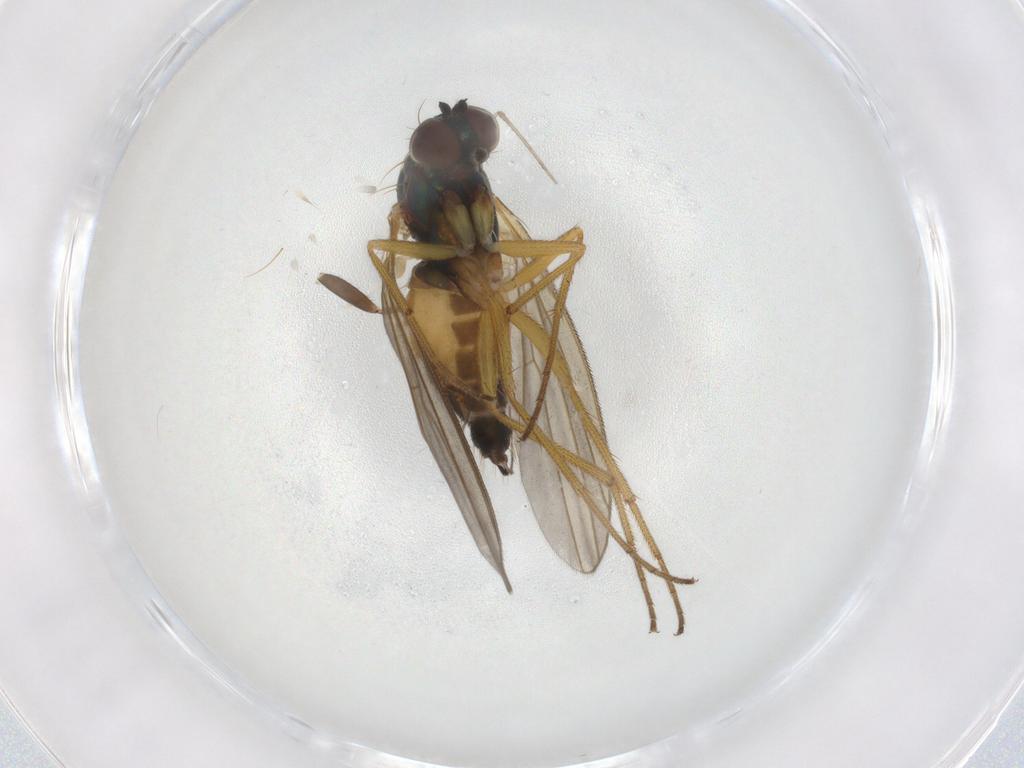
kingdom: Animalia
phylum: Arthropoda
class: Insecta
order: Diptera
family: Dolichopodidae
